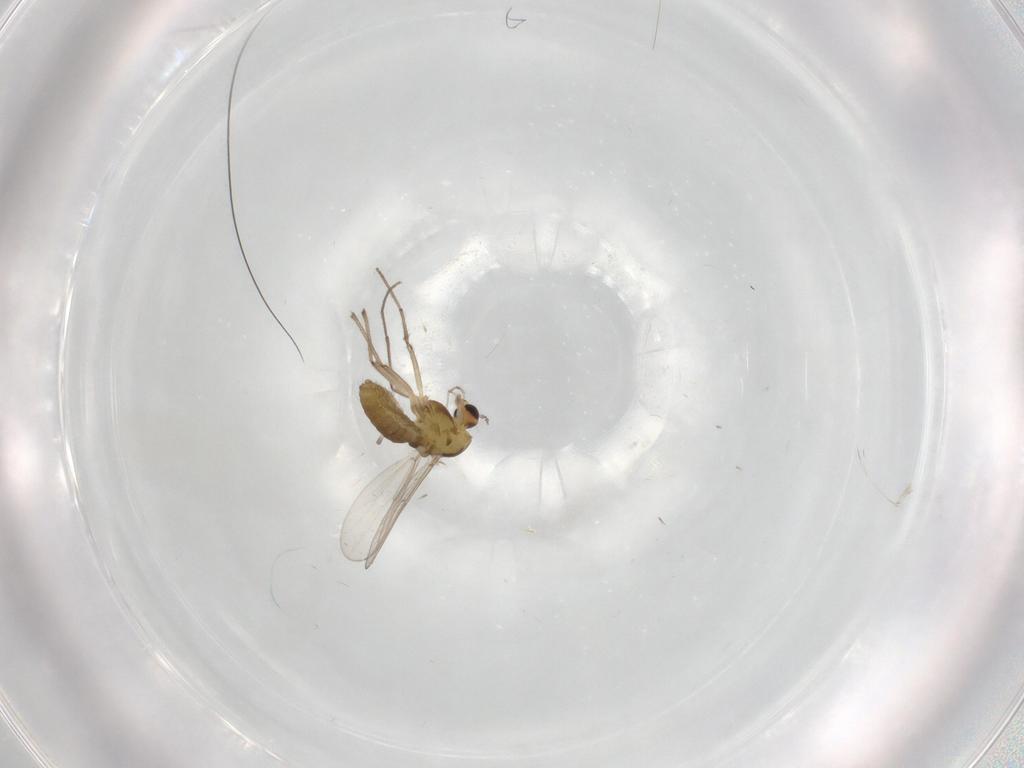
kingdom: Animalia
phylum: Arthropoda
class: Insecta
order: Diptera
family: Chironomidae
